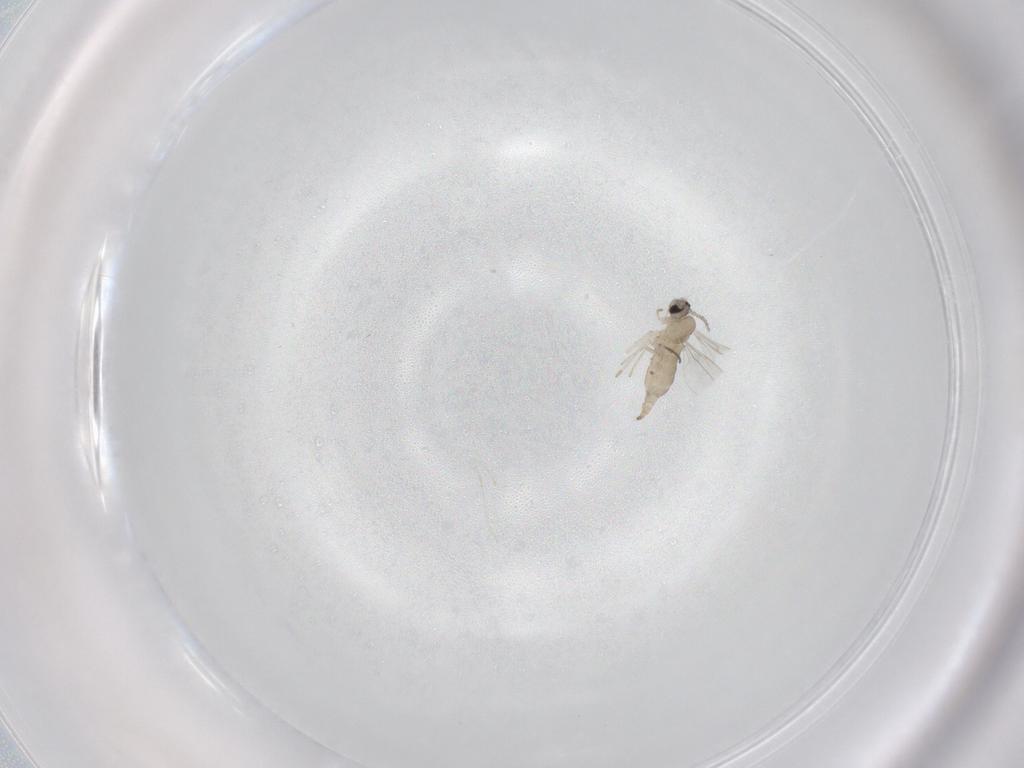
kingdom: Animalia
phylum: Arthropoda
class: Insecta
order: Diptera
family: Cecidomyiidae
